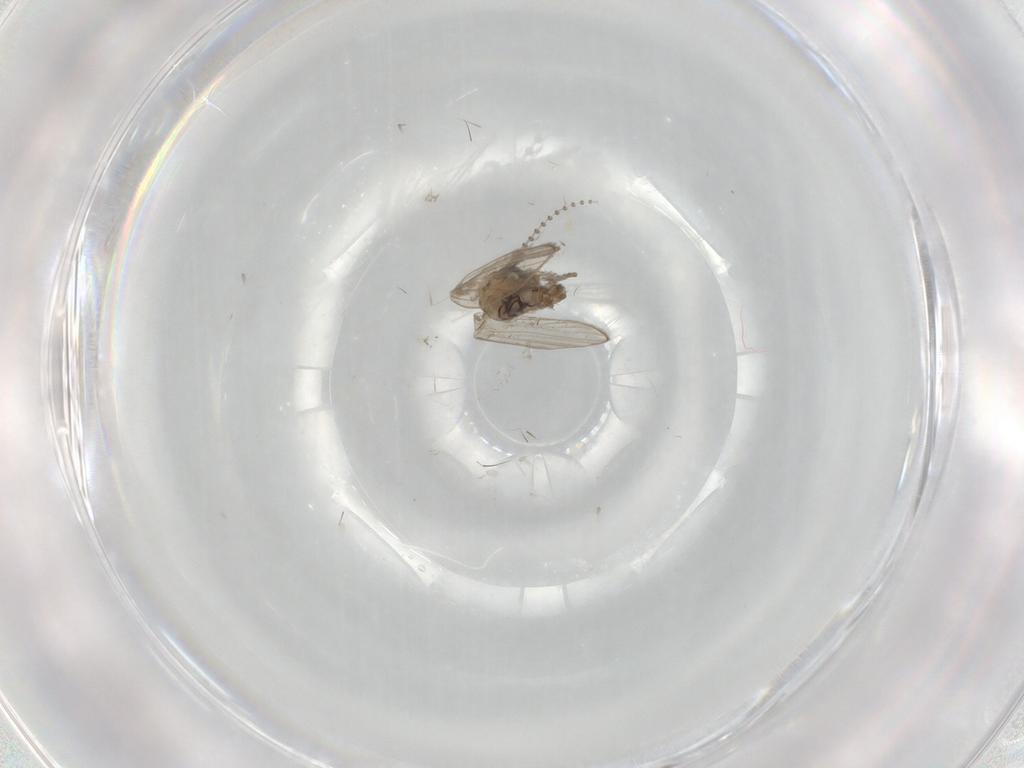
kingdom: Animalia
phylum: Arthropoda
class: Insecta
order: Diptera
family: Psychodidae
